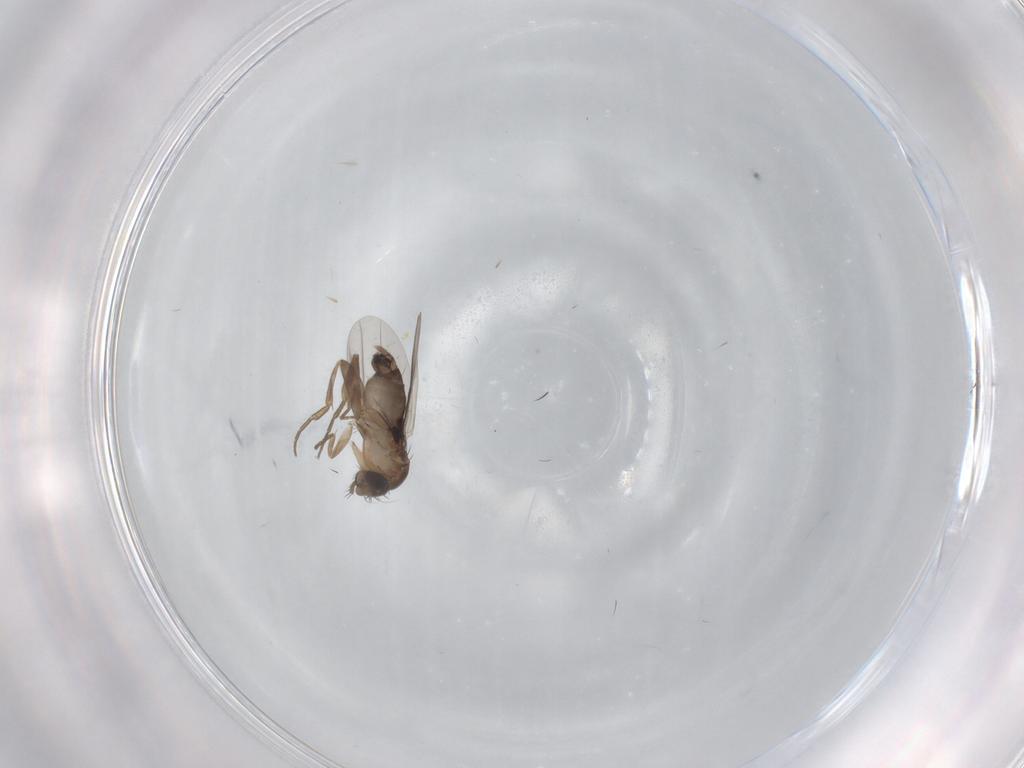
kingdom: Animalia
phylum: Arthropoda
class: Insecta
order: Diptera
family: Phoridae
